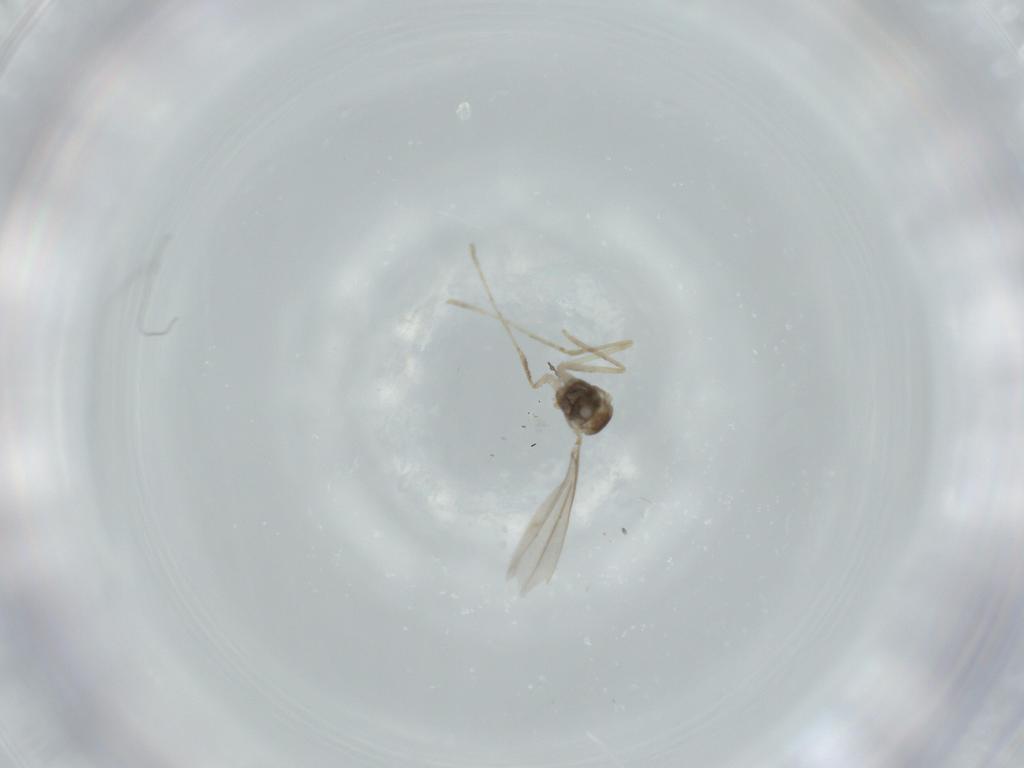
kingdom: Animalia
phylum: Arthropoda
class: Insecta
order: Diptera
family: Cecidomyiidae
